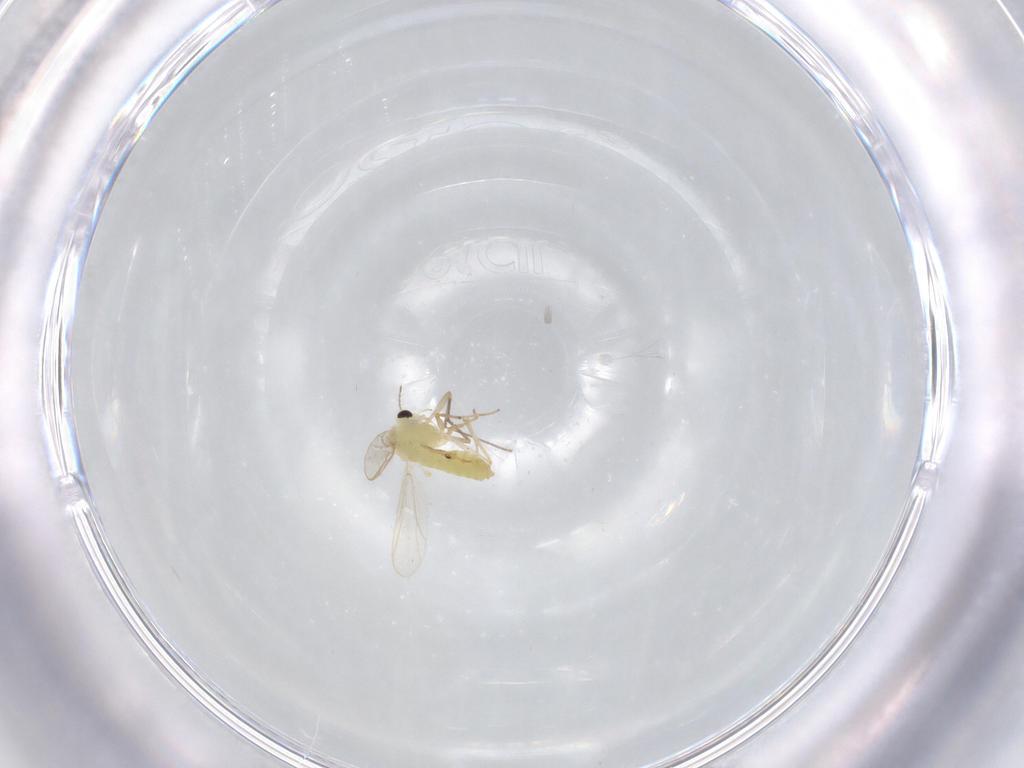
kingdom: Animalia
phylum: Arthropoda
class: Insecta
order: Diptera
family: Chironomidae
